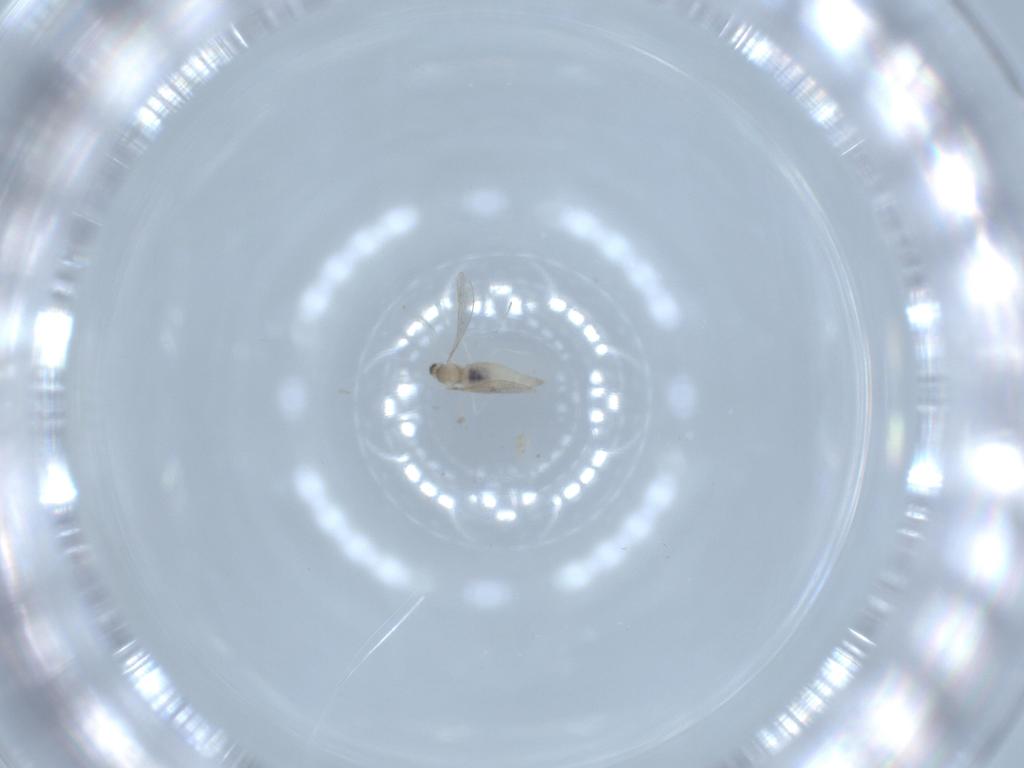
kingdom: Animalia
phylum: Arthropoda
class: Insecta
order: Diptera
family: Cecidomyiidae
